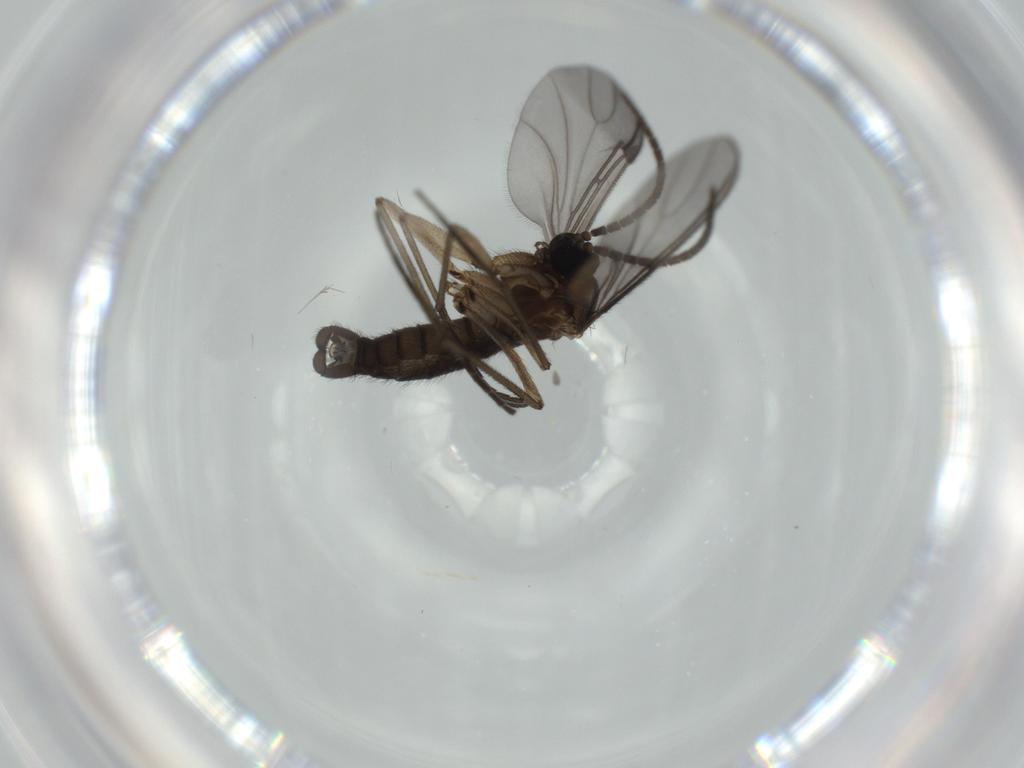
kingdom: Animalia
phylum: Arthropoda
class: Insecta
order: Diptera
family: Sciaridae
